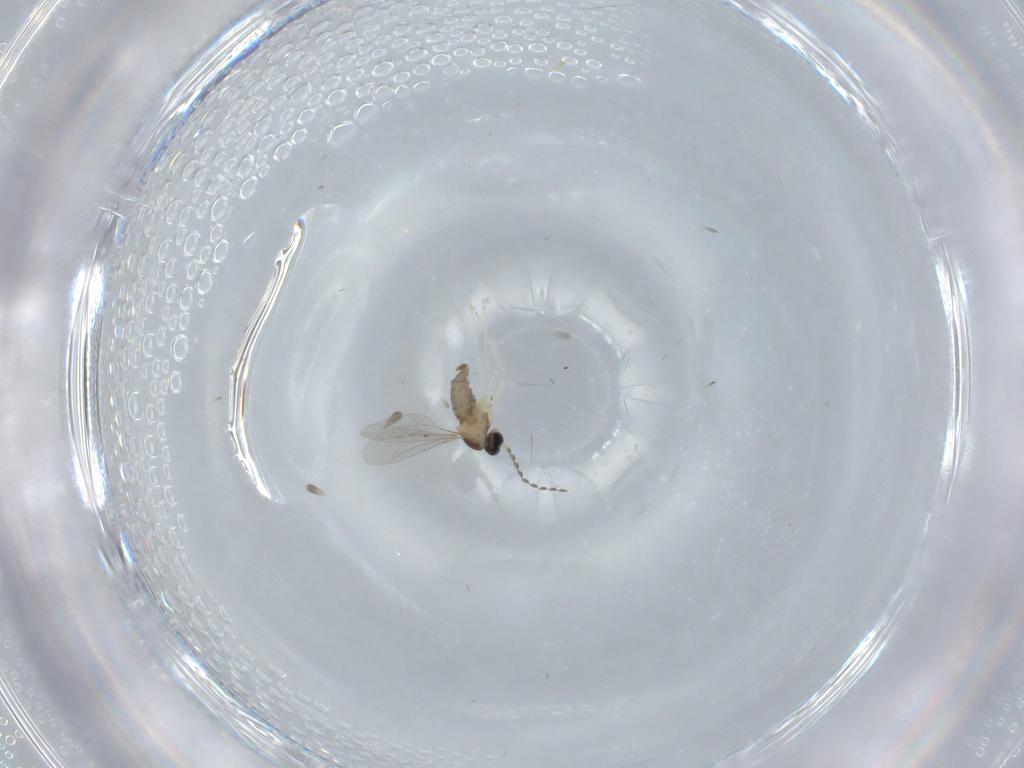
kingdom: Animalia
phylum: Arthropoda
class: Insecta
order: Diptera
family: Cecidomyiidae
